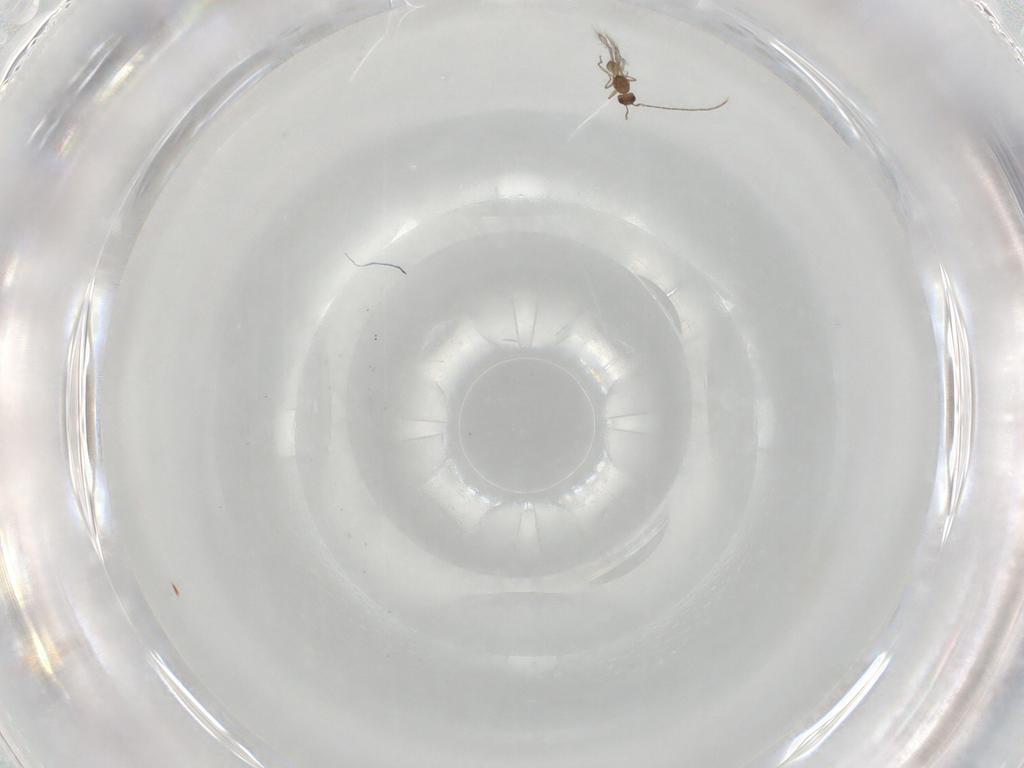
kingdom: Animalia
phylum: Arthropoda
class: Insecta
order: Hymenoptera
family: Mymaridae
